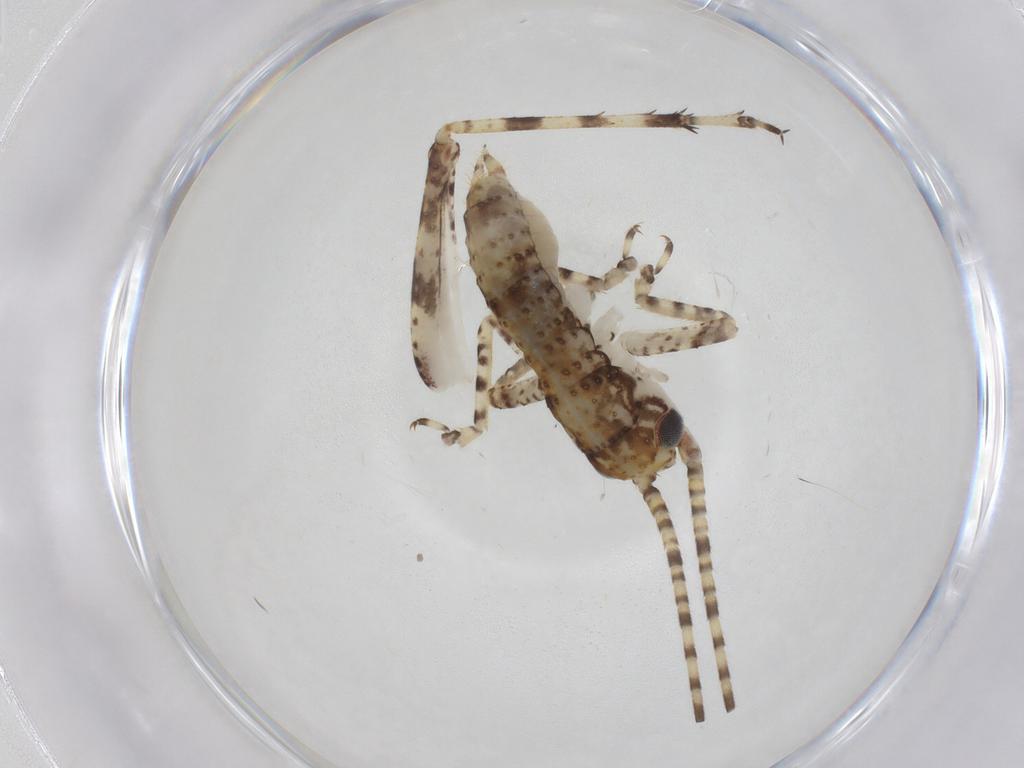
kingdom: Animalia
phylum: Arthropoda
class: Insecta
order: Orthoptera
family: Gryllidae
